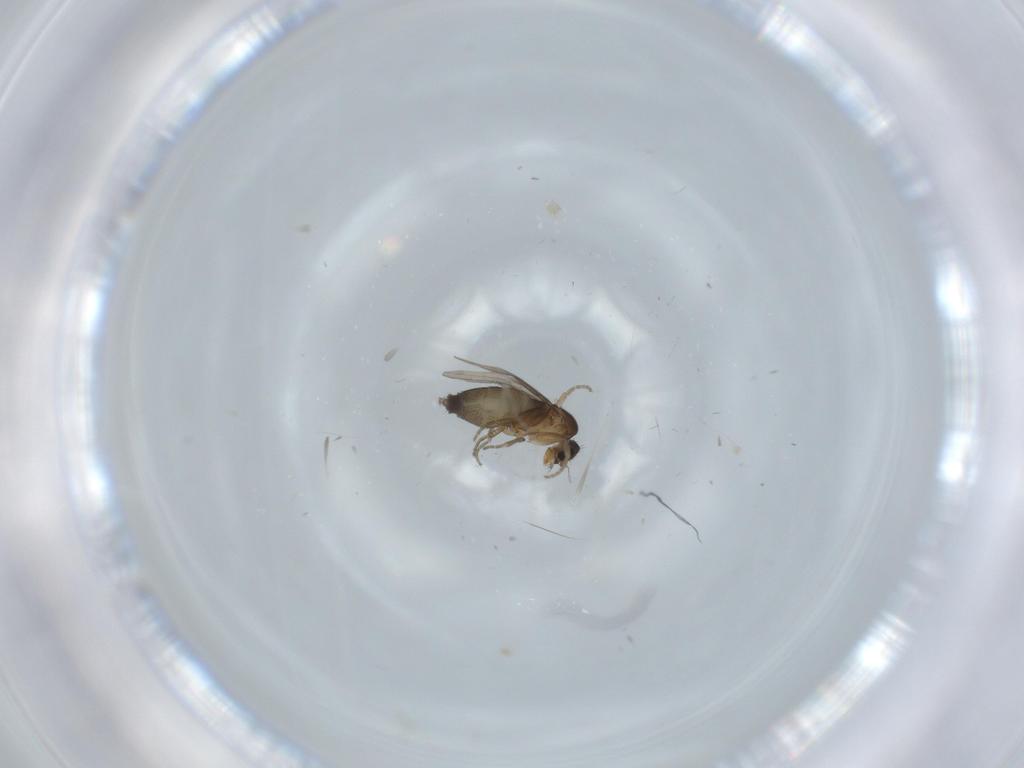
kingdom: Animalia
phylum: Arthropoda
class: Insecta
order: Diptera
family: Phoridae
